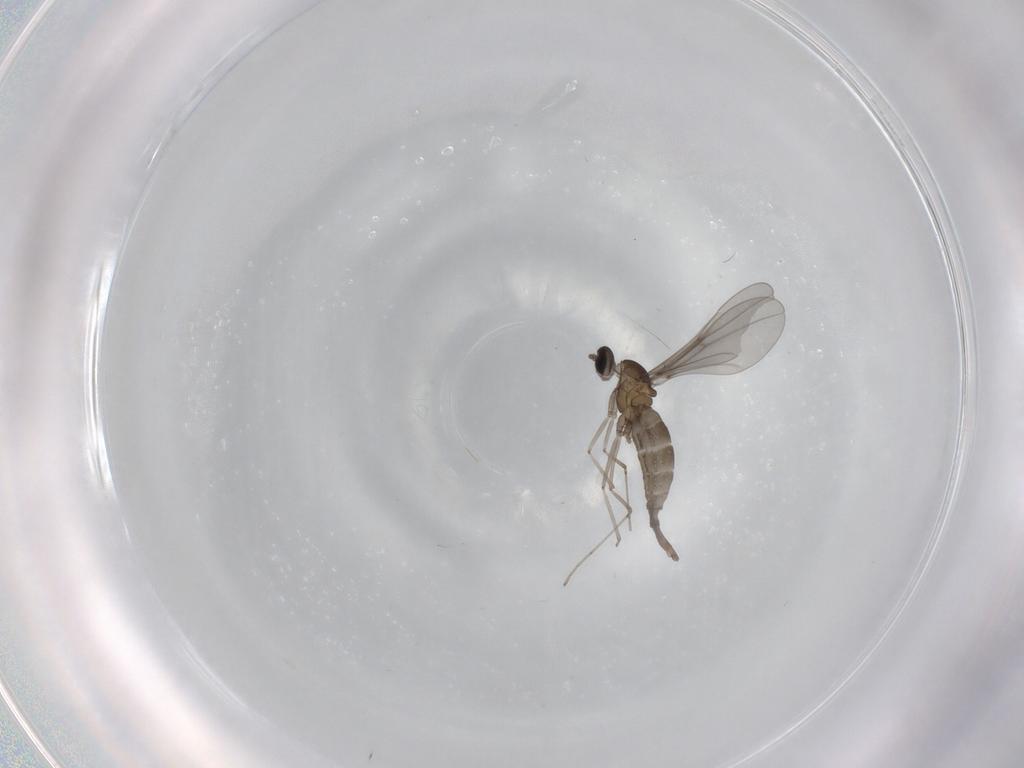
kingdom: Animalia
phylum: Arthropoda
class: Insecta
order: Diptera
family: Cecidomyiidae
